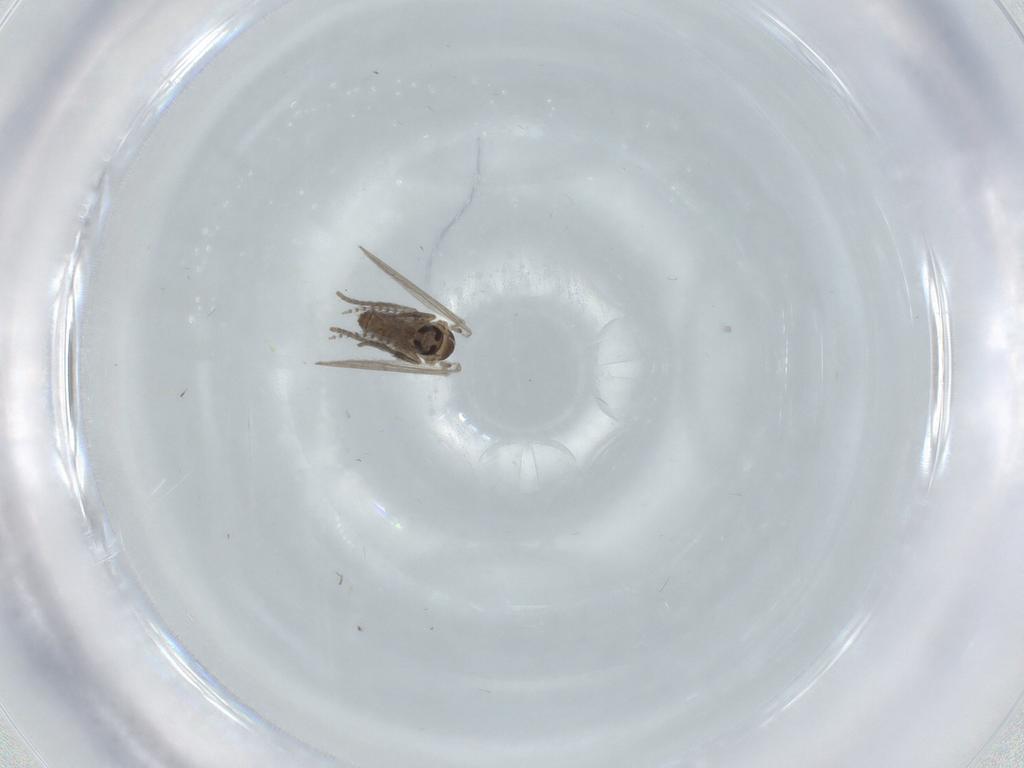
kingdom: Animalia
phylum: Arthropoda
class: Insecta
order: Diptera
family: Psychodidae
